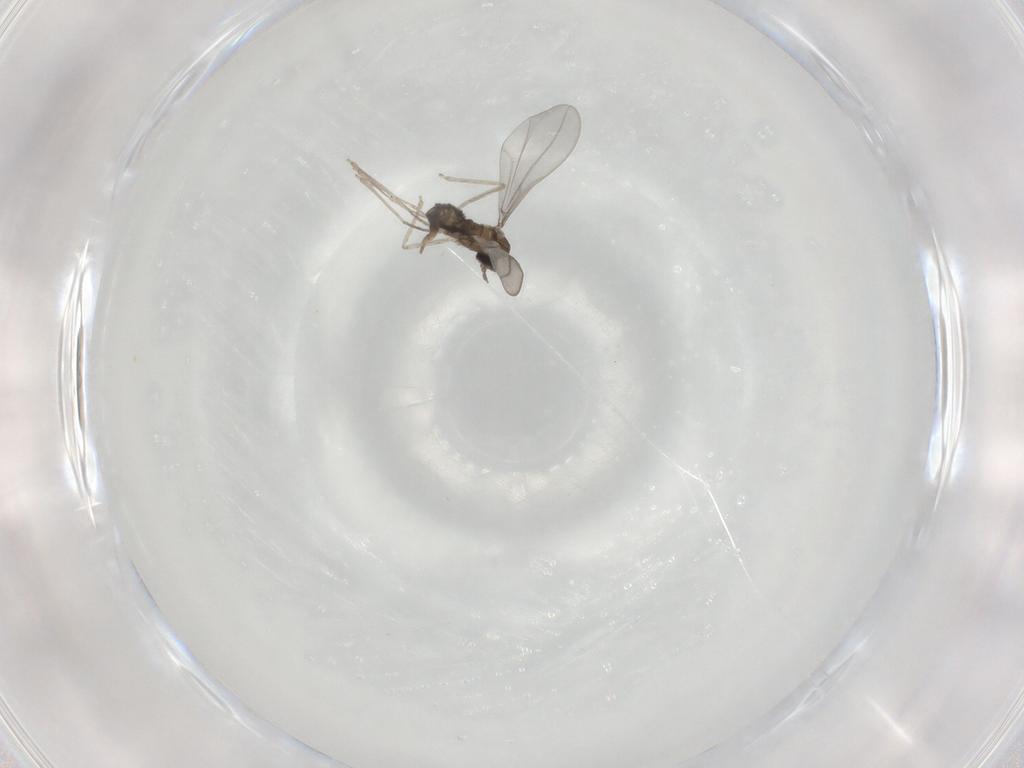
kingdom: Animalia
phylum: Arthropoda
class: Insecta
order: Diptera
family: Cecidomyiidae
